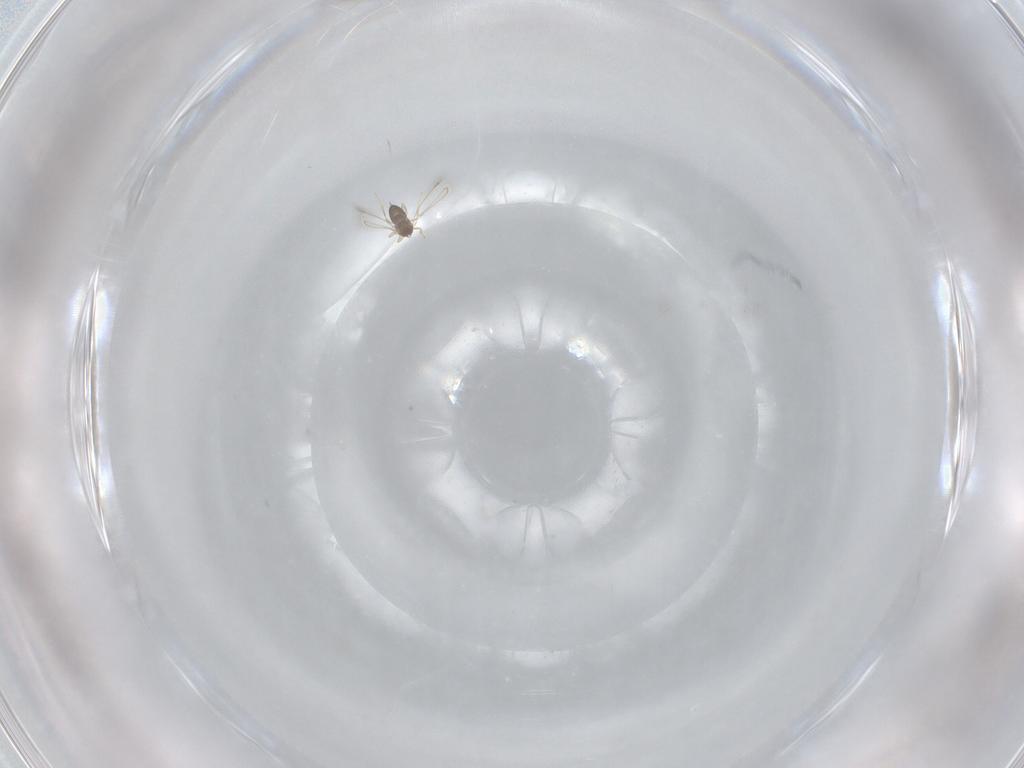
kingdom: Animalia
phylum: Arthropoda
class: Insecta
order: Hymenoptera
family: Mymaridae
